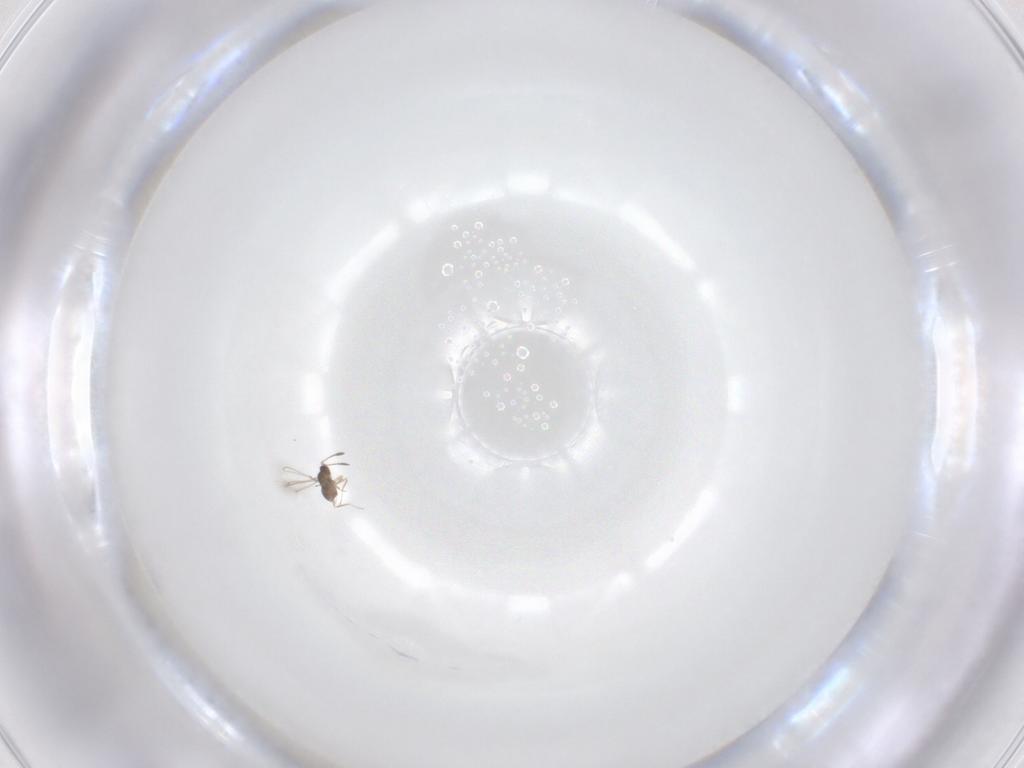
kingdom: Animalia
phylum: Arthropoda
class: Insecta
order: Hymenoptera
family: Mymaridae
